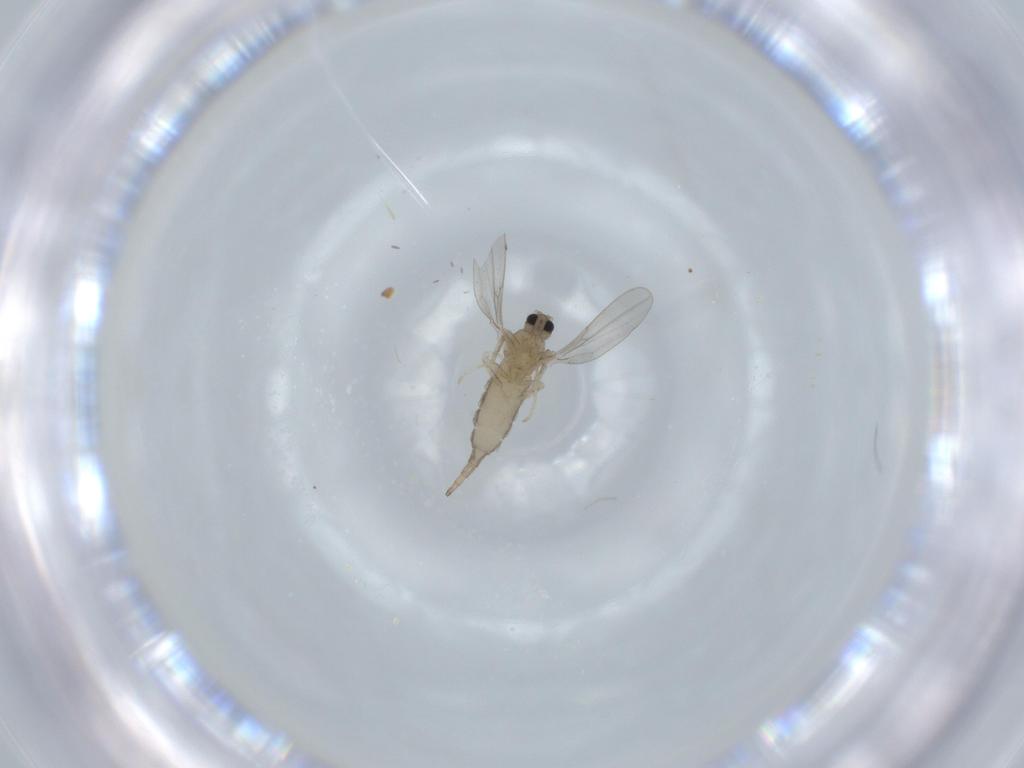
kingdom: Animalia
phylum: Arthropoda
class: Insecta
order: Diptera
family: Cecidomyiidae
